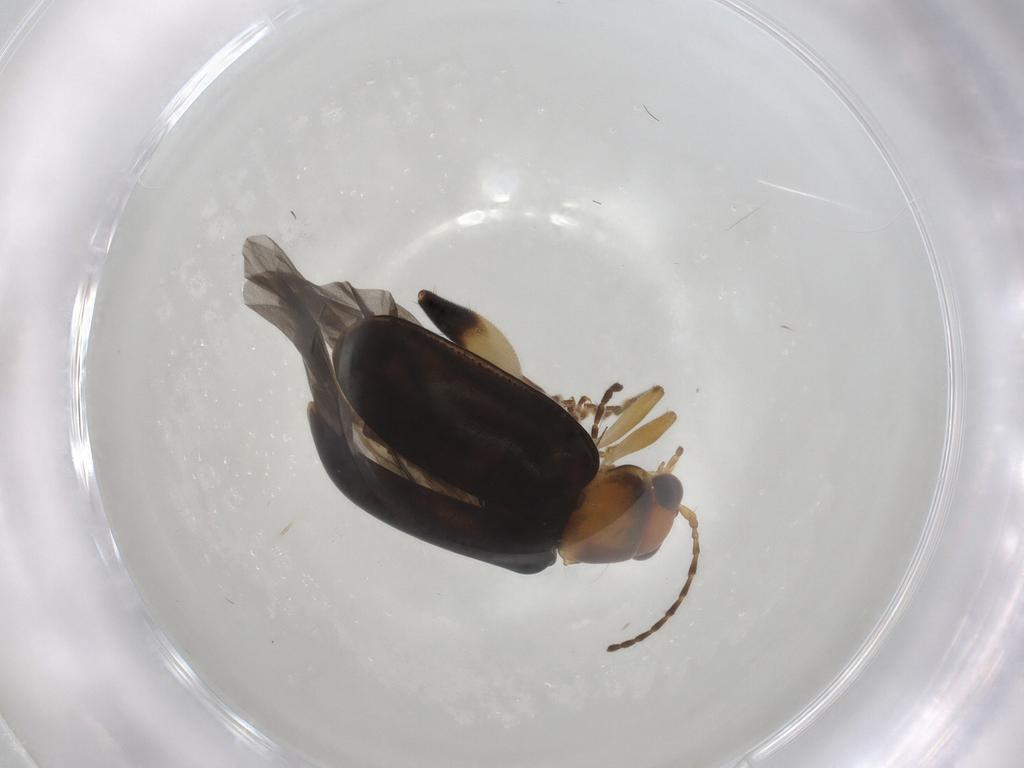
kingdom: Animalia
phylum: Arthropoda
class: Insecta
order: Coleoptera
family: Chrysomelidae
